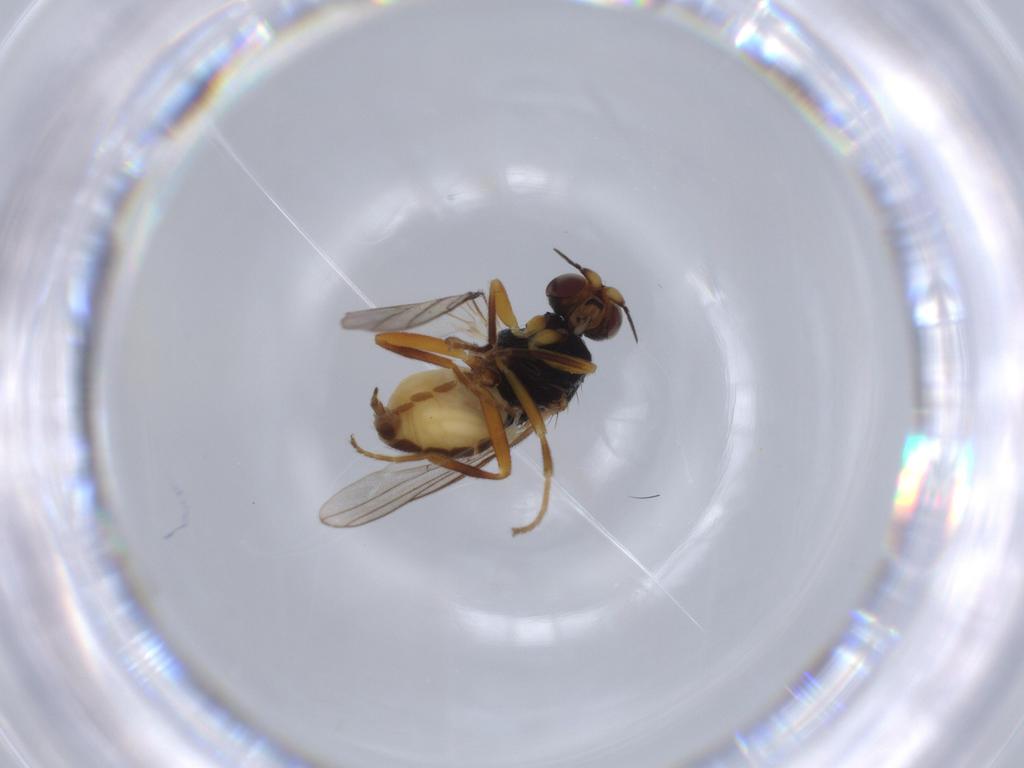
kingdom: Animalia
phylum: Arthropoda
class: Insecta
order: Diptera
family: Chloropidae
